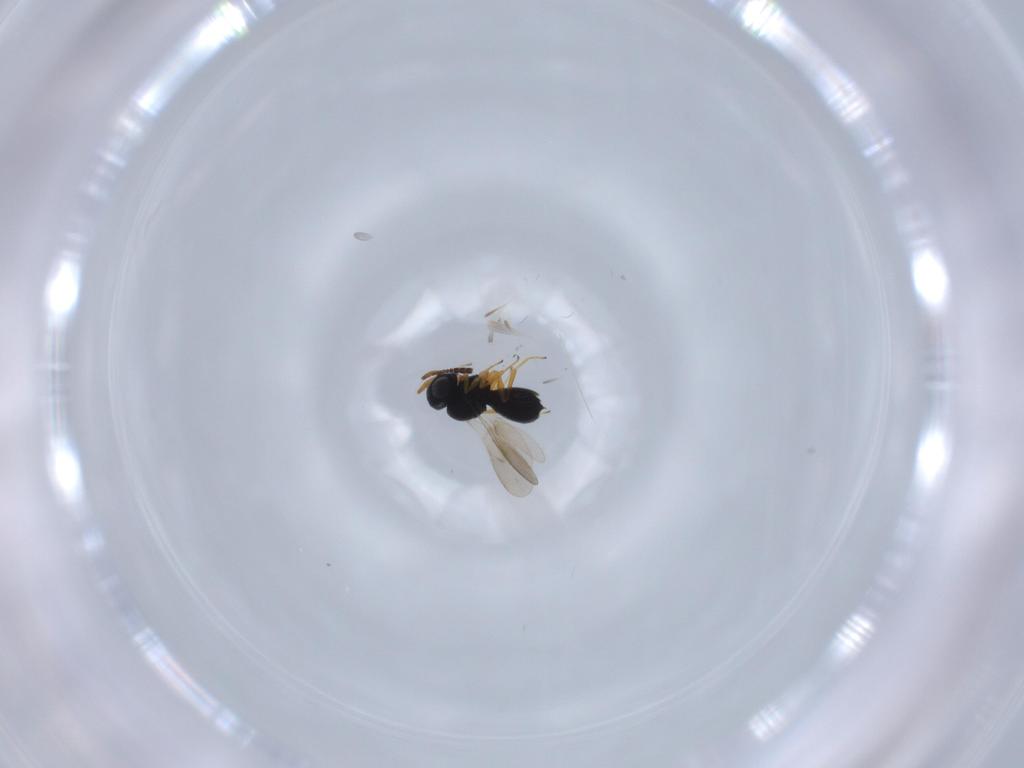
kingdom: Animalia
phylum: Arthropoda
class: Insecta
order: Hymenoptera
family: Scelionidae
